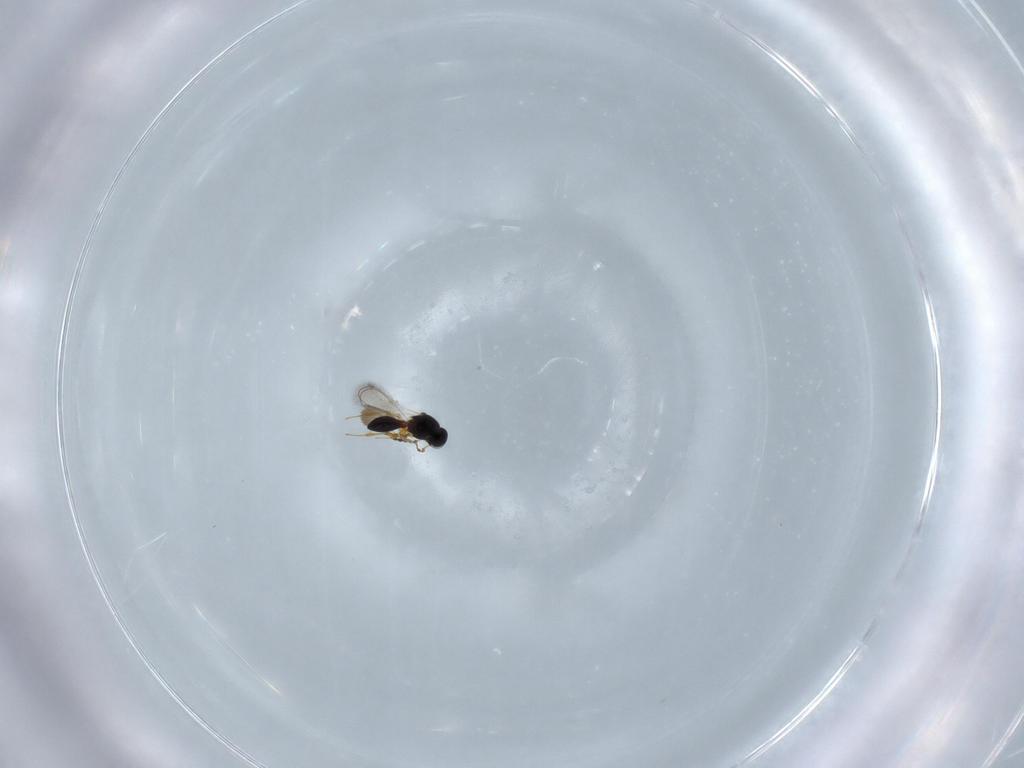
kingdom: Animalia
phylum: Arthropoda
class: Insecta
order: Hymenoptera
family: Platygastridae
